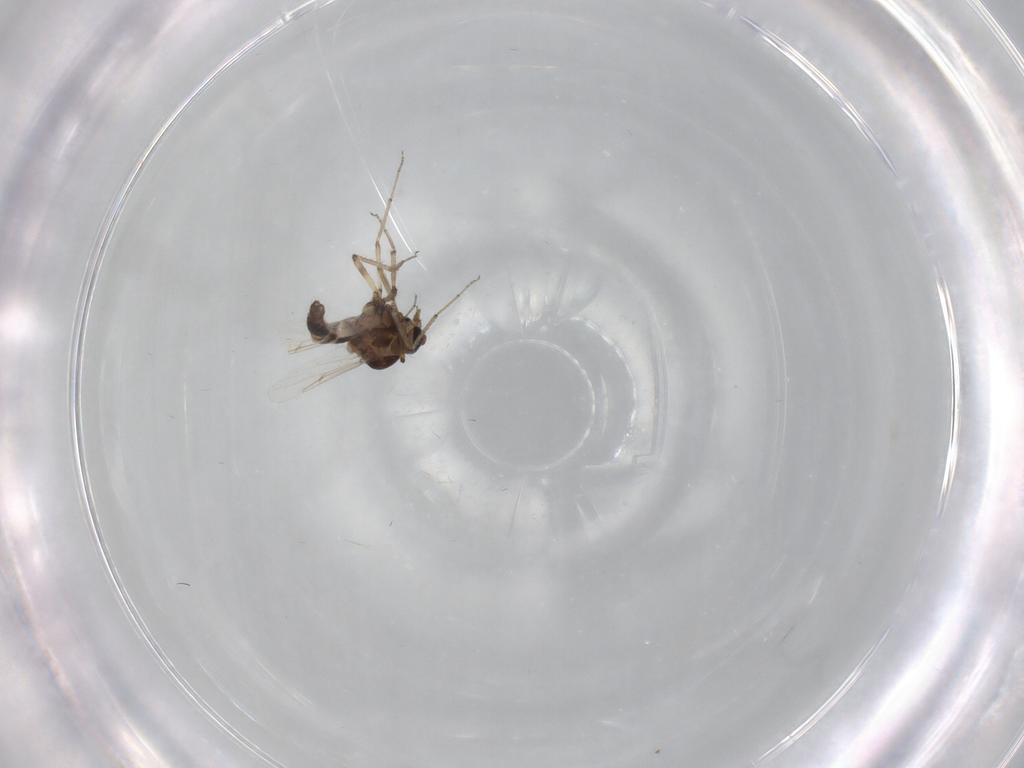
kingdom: Animalia
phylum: Arthropoda
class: Insecta
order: Diptera
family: Ceratopogonidae
